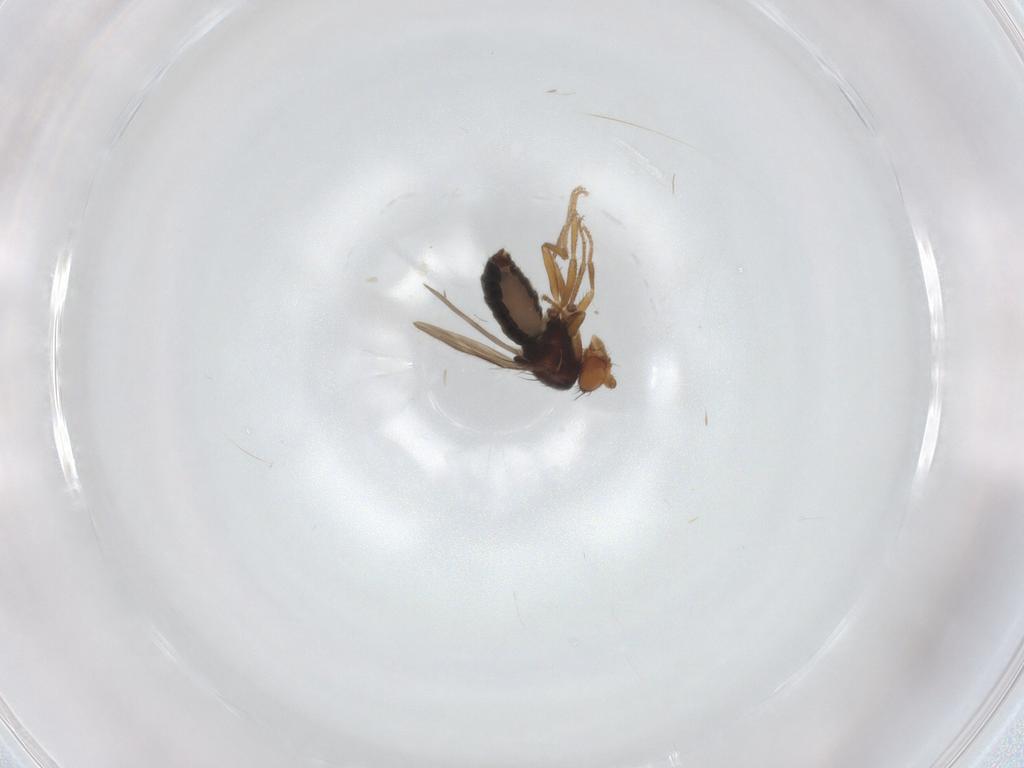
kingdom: Animalia
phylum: Arthropoda
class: Insecta
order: Diptera
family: Sphaeroceridae
